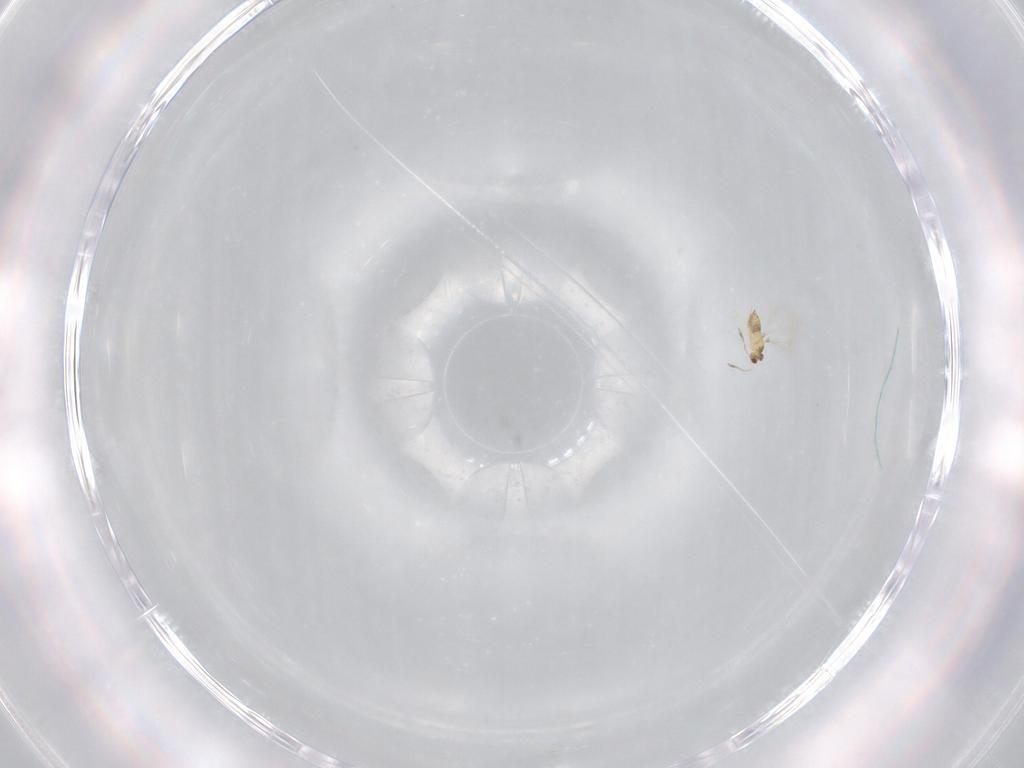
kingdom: Animalia
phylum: Arthropoda
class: Insecta
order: Hymenoptera
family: Mymaridae
